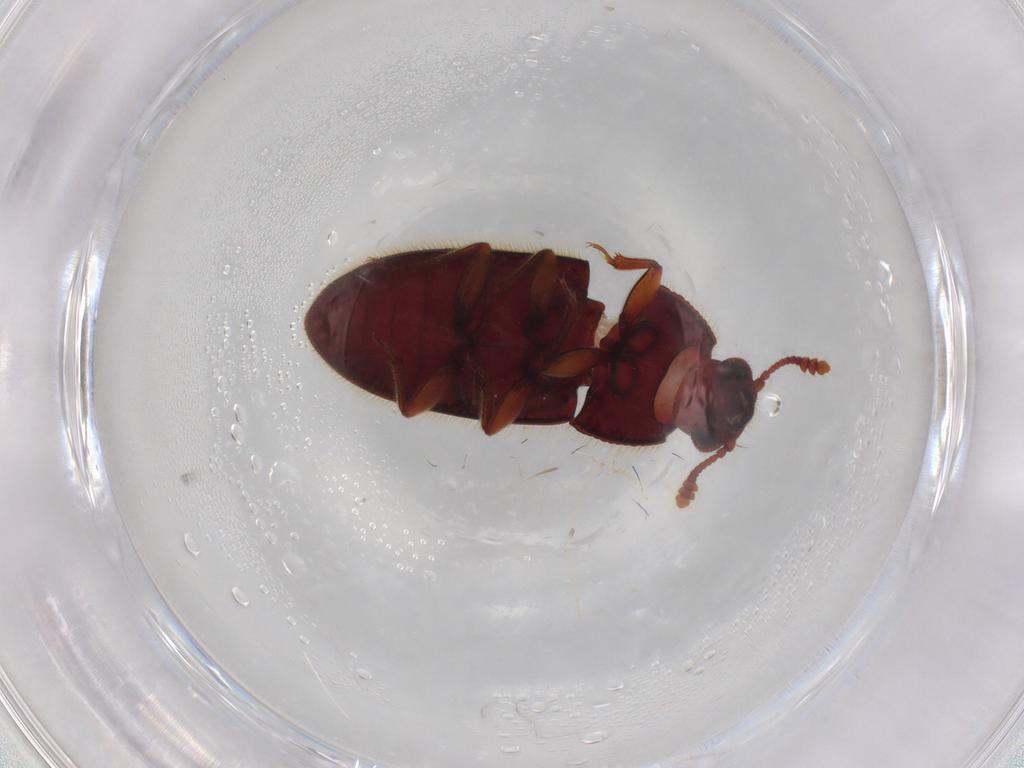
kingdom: Animalia
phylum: Arthropoda
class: Insecta
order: Coleoptera
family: Biphyllidae
